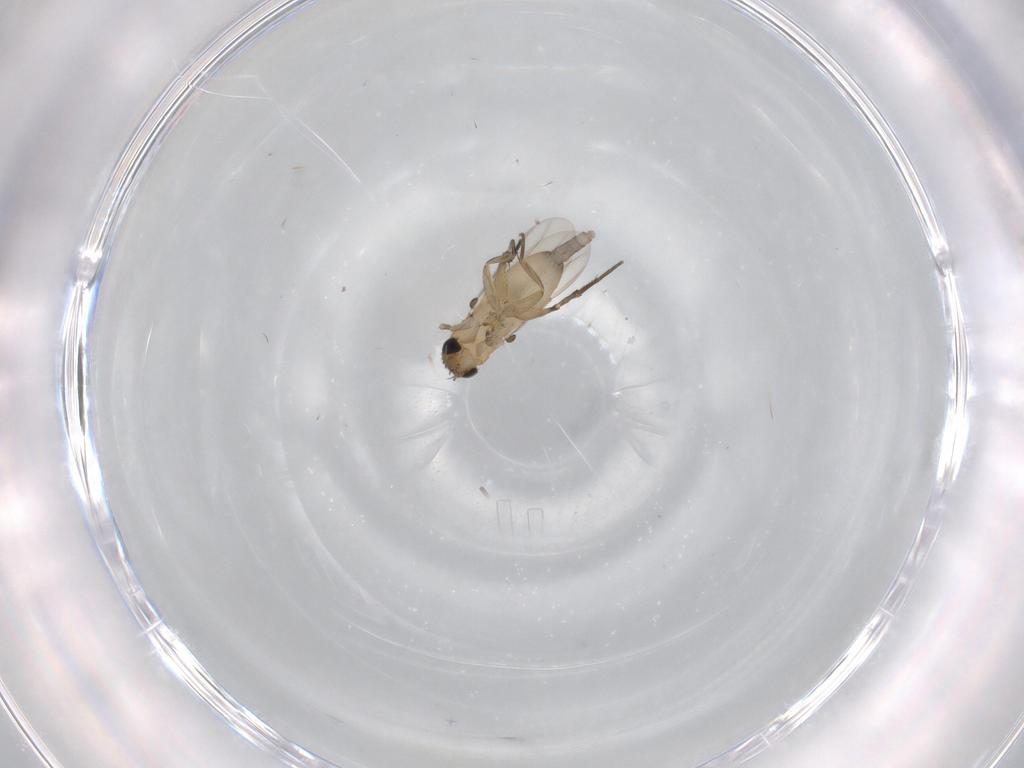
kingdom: Animalia
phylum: Arthropoda
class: Insecta
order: Diptera
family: Phoridae
